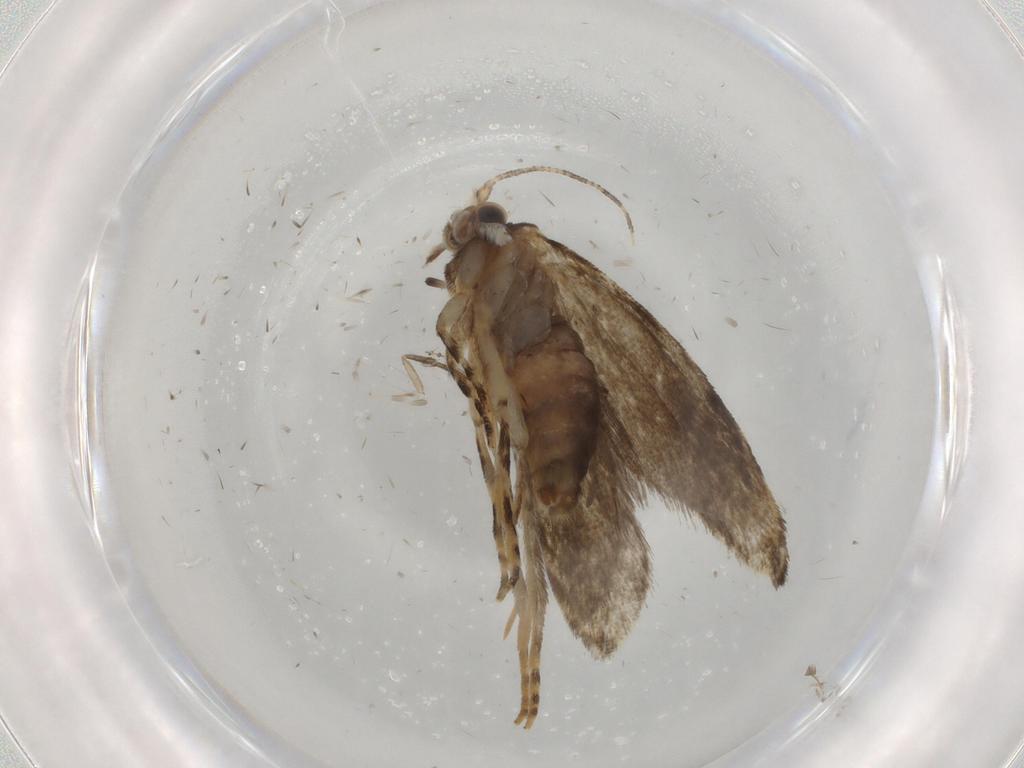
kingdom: Animalia
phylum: Arthropoda
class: Insecta
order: Lepidoptera
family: Tineidae
